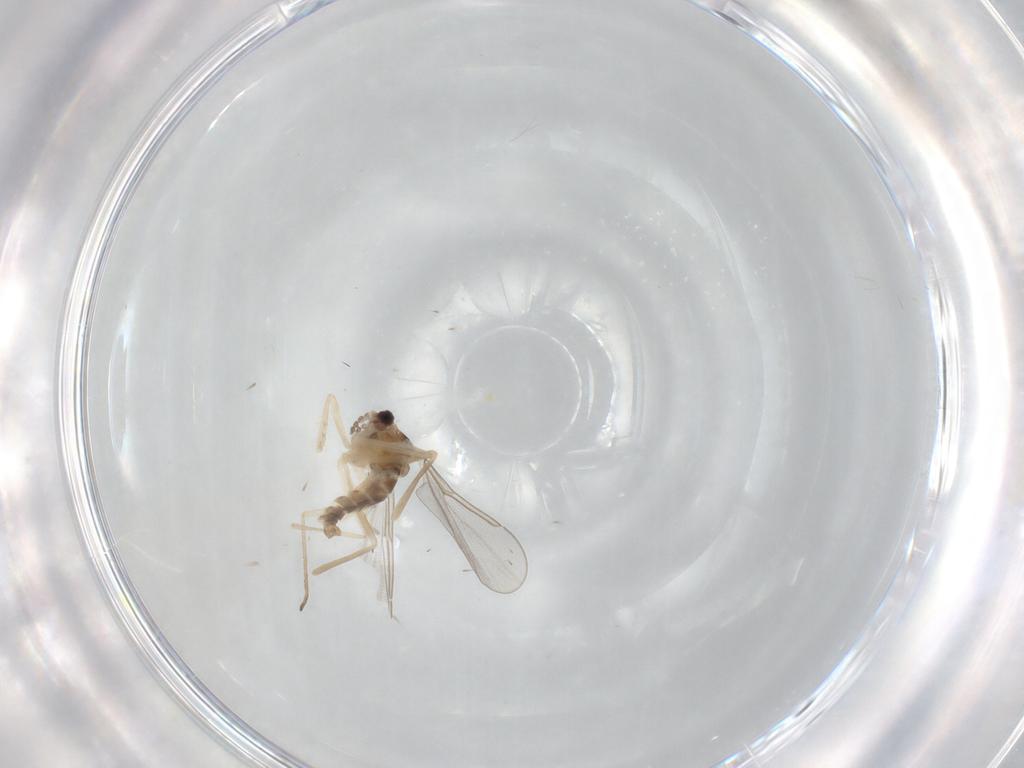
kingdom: Animalia
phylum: Arthropoda
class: Insecta
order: Diptera
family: Cecidomyiidae
